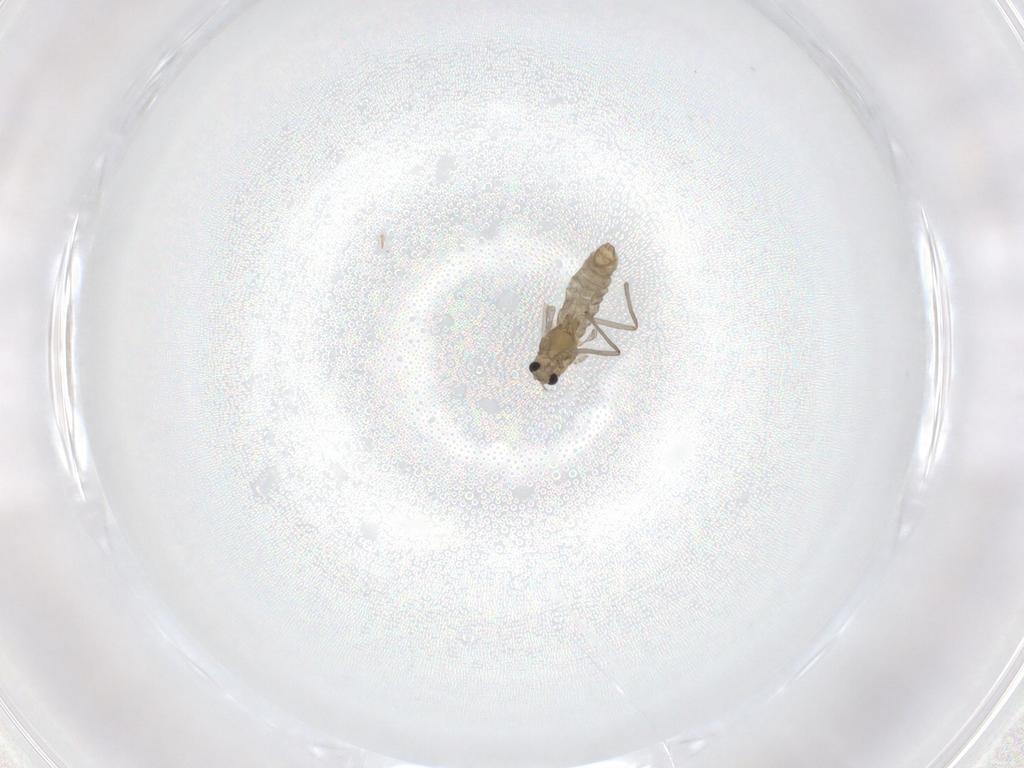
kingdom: Animalia
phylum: Arthropoda
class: Insecta
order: Diptera
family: Chironomidae
